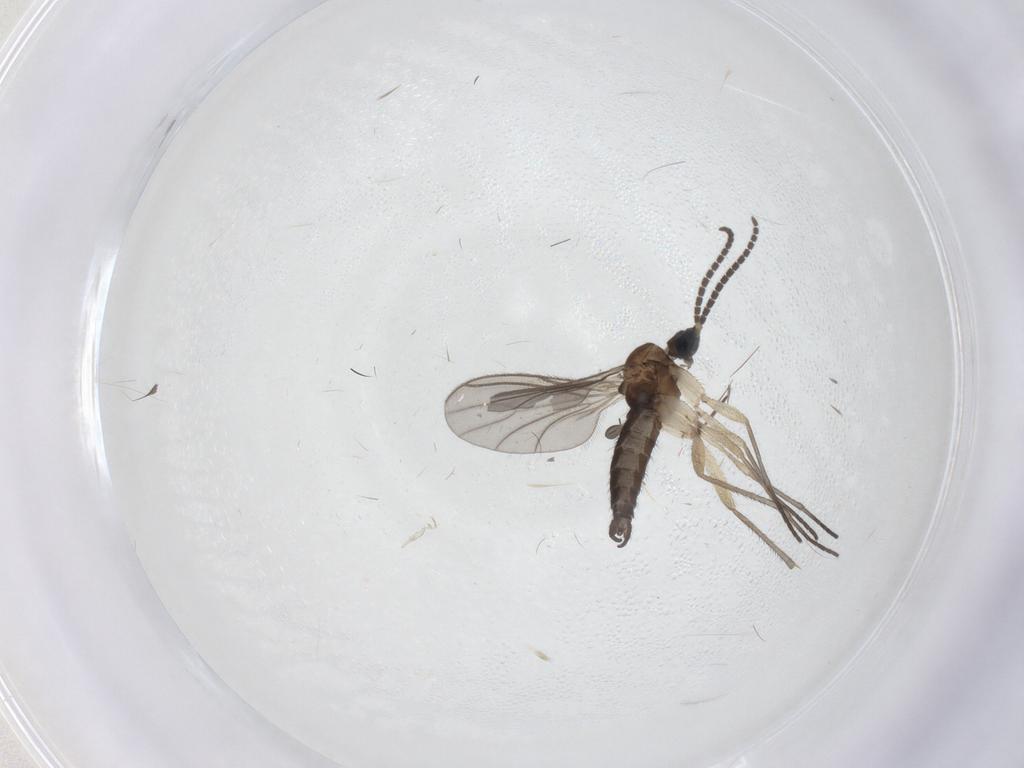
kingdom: Animalia
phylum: Arthropoda
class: Insecta
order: Diptera
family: Sciaridae
